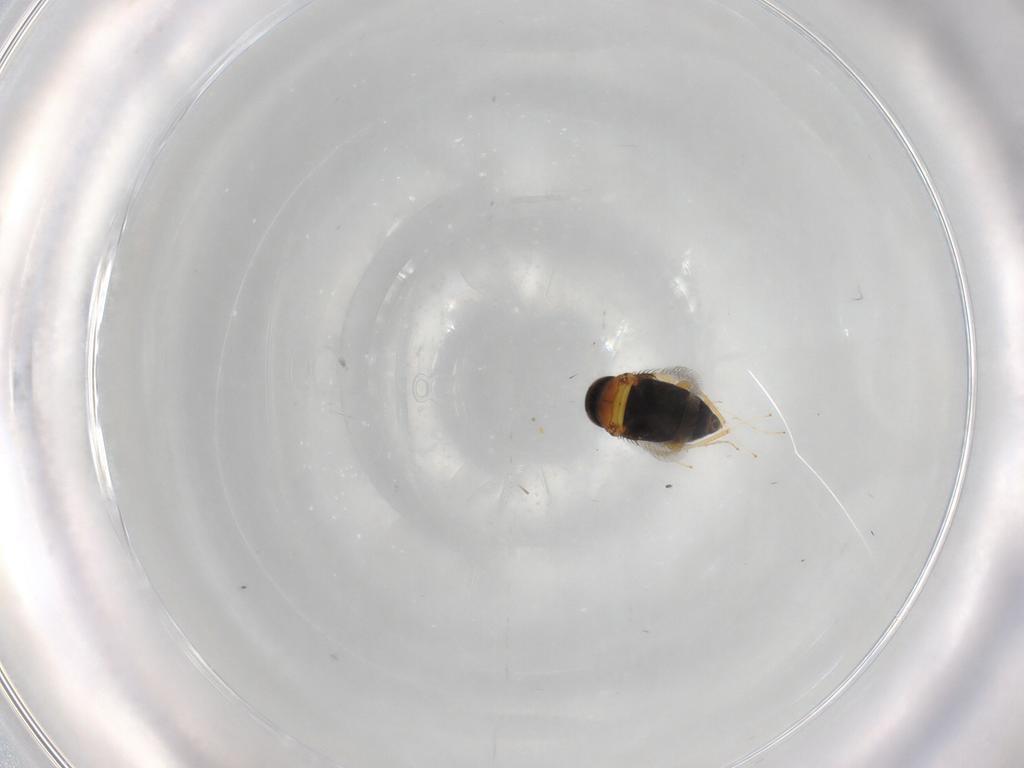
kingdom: Animalia
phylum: Arthropoda
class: Insecta
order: Hymenoptera
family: Signiphoridae
